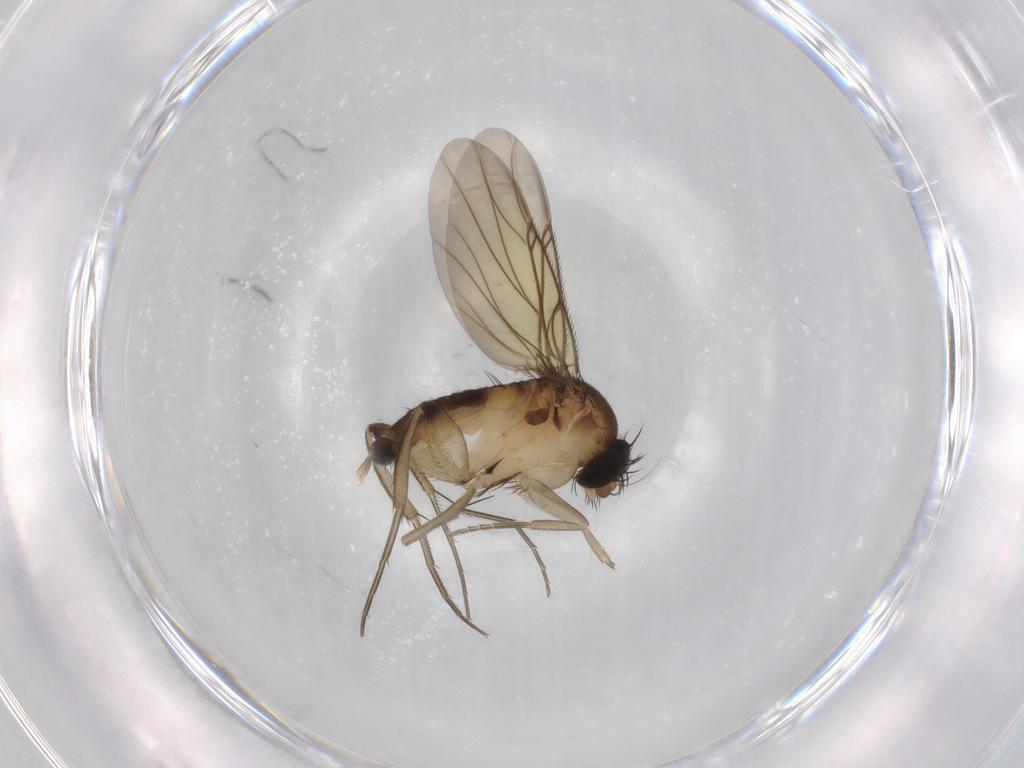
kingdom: Animalia
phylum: Arthropoda
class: Insecta
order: Diptera
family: Phoridae
